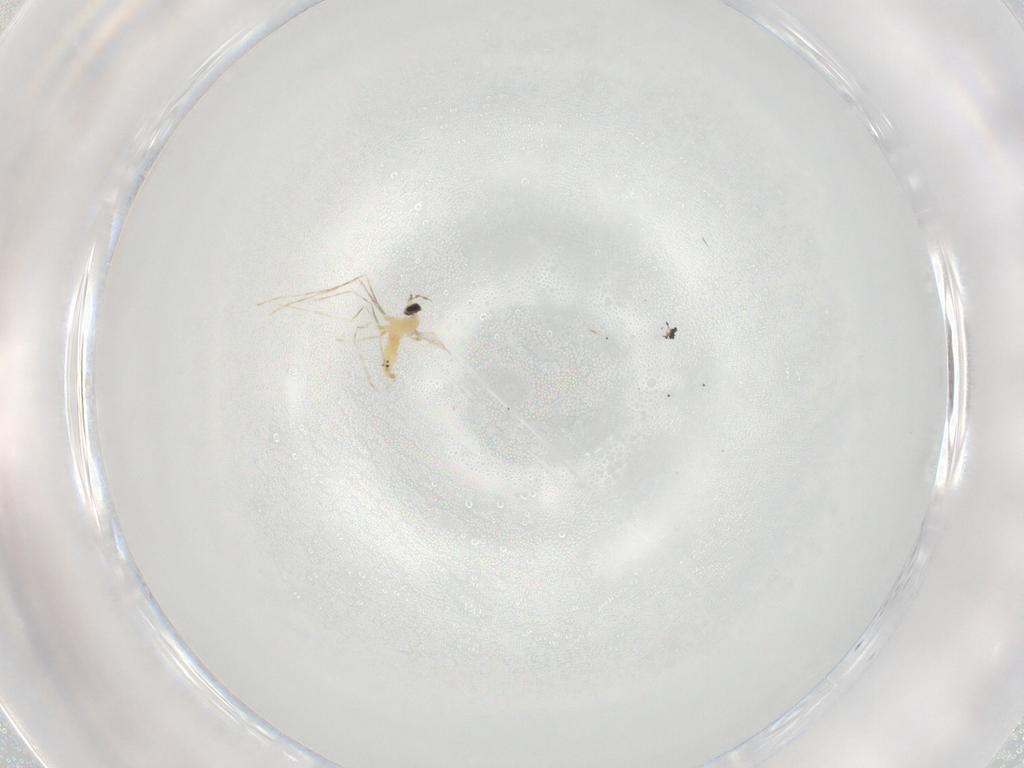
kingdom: Animalia
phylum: Arthropoda
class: Insecta
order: Diptera
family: Cecidomyiidae
